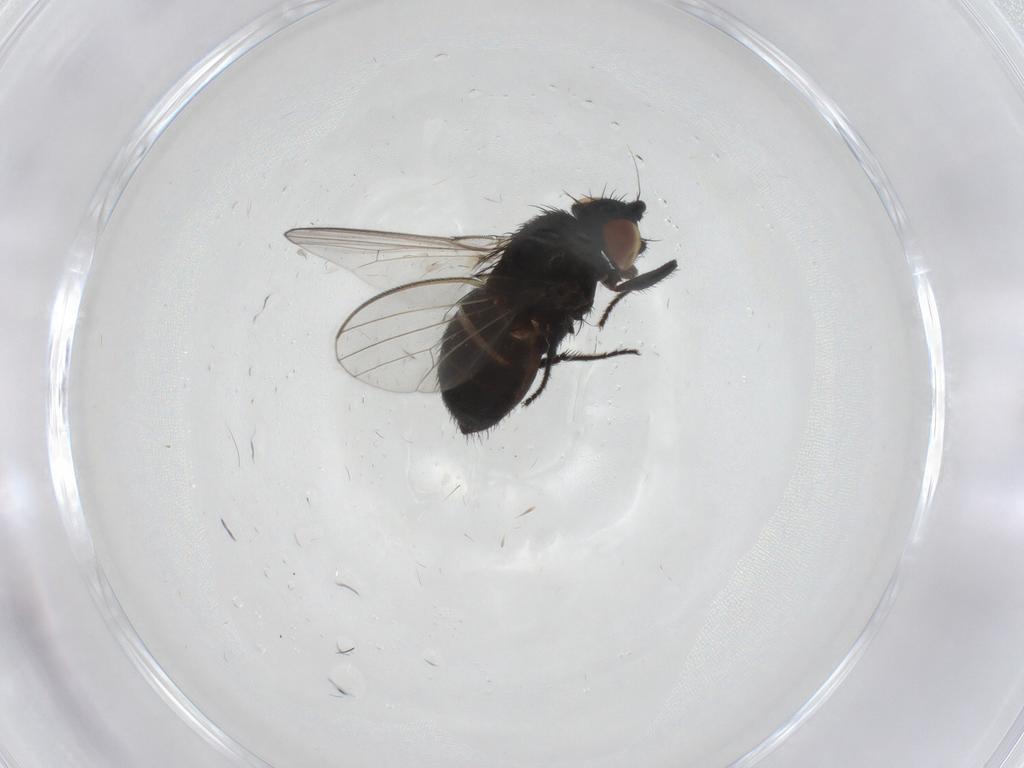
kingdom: Animalia
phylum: Arthropoda
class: Insecta
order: Diptera
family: Milichiidae
